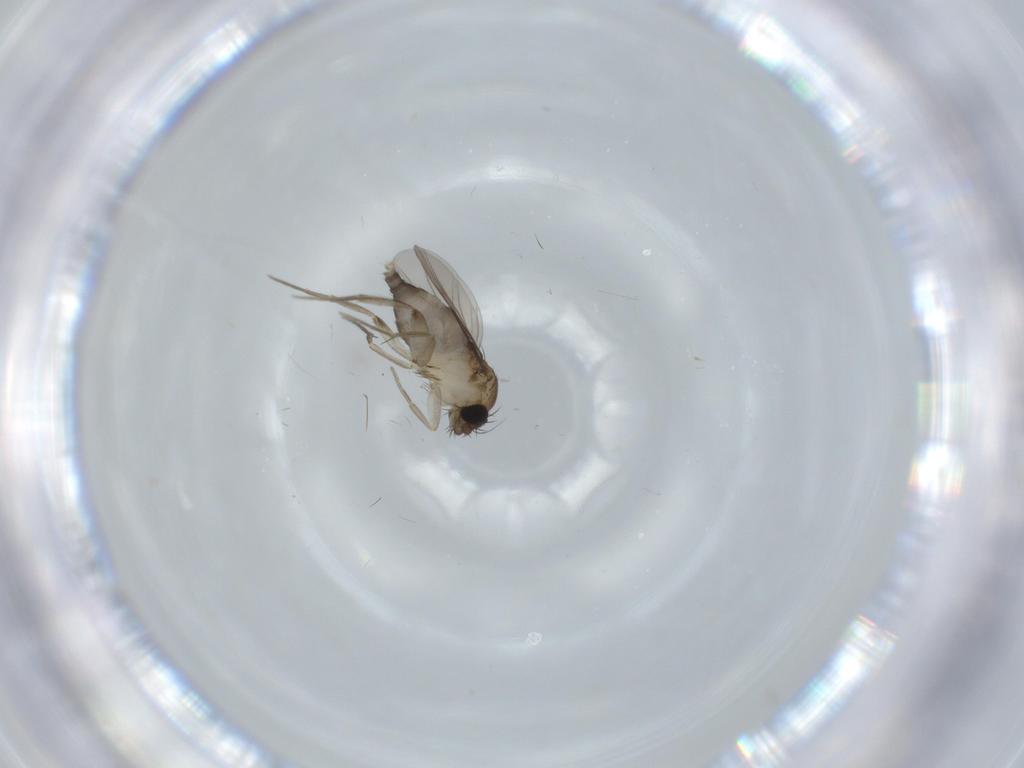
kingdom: Animalia
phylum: Arthropoda
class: Insecta
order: Diptera
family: Phoridae
